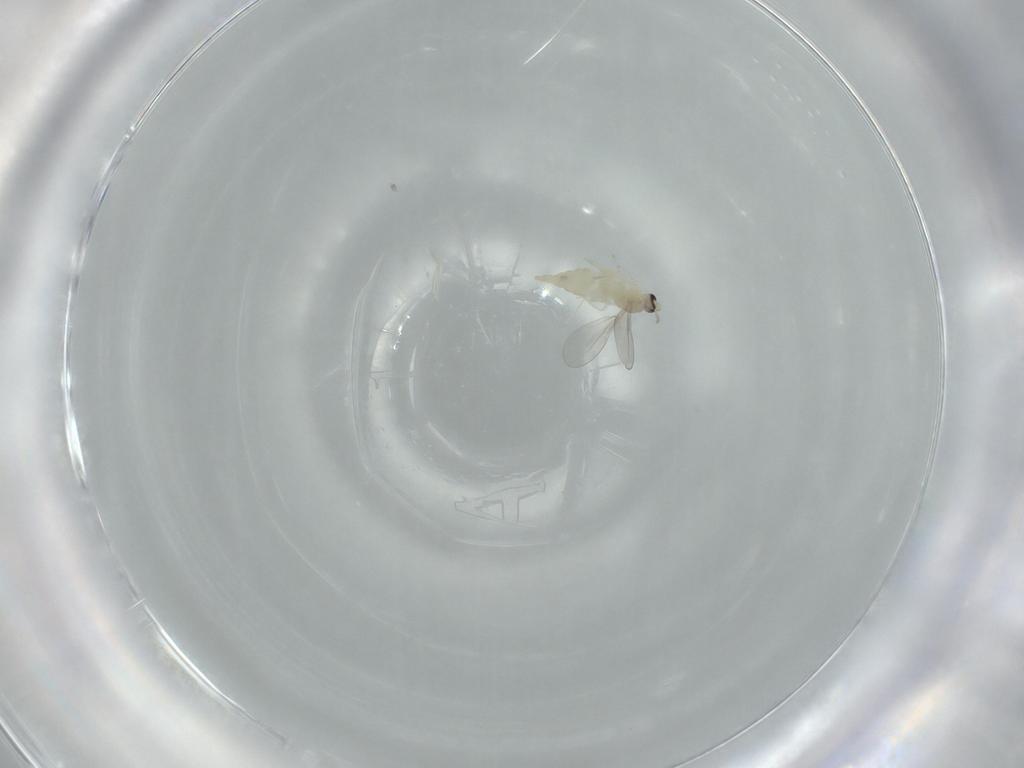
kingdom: Animalia
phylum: Arthropoda
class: Insecta
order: Diptera
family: Cecidomyiidae
